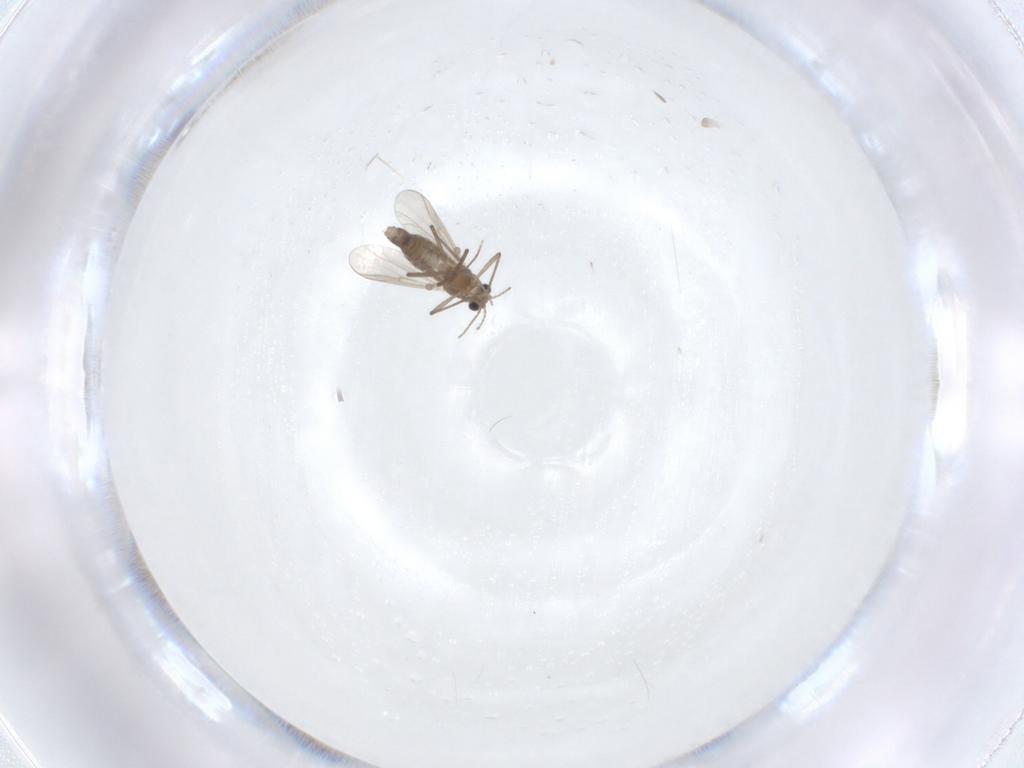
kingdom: Animalia
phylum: Arthropoda
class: Insecta
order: Diptera
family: Chironomidae
